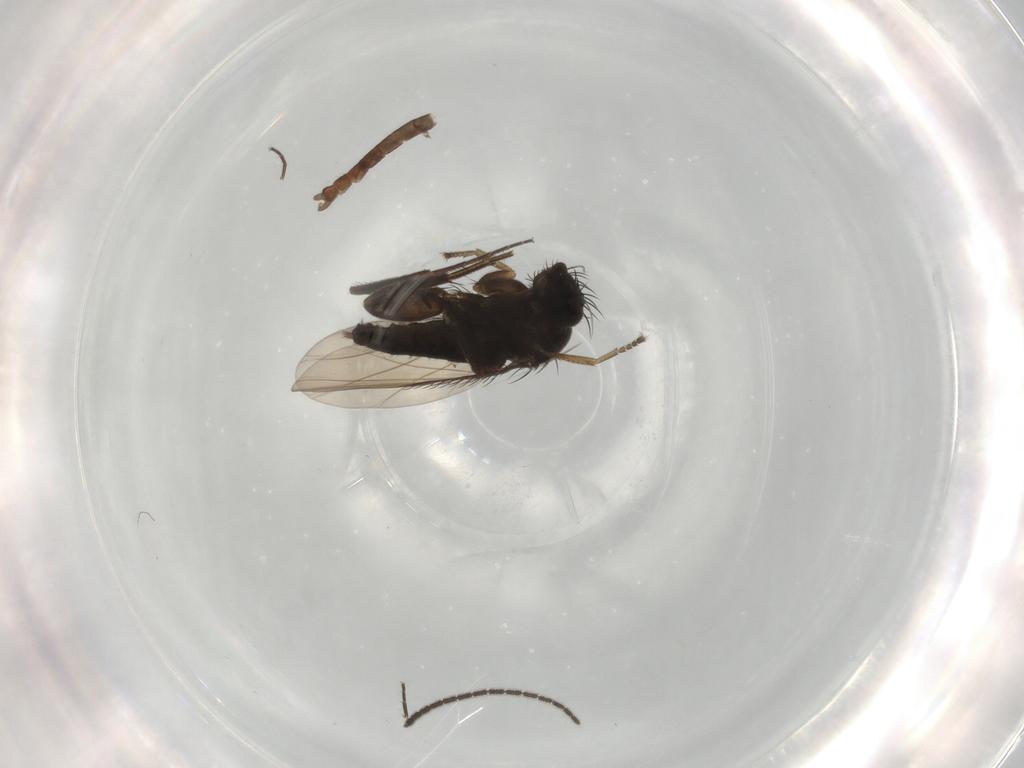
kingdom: Animalia
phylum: Arthropoda
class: Insecta
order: Diptera
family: Phoridae
